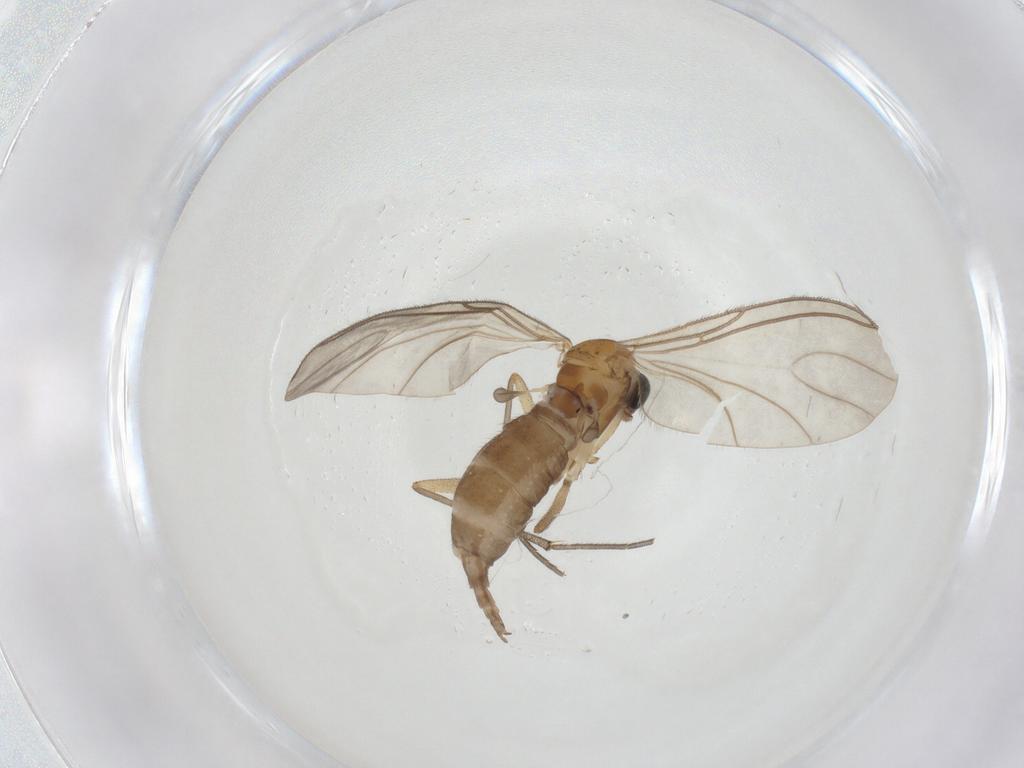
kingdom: Animalia
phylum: Arthropoda
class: Insecta
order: Diptera
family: Sciaridae
